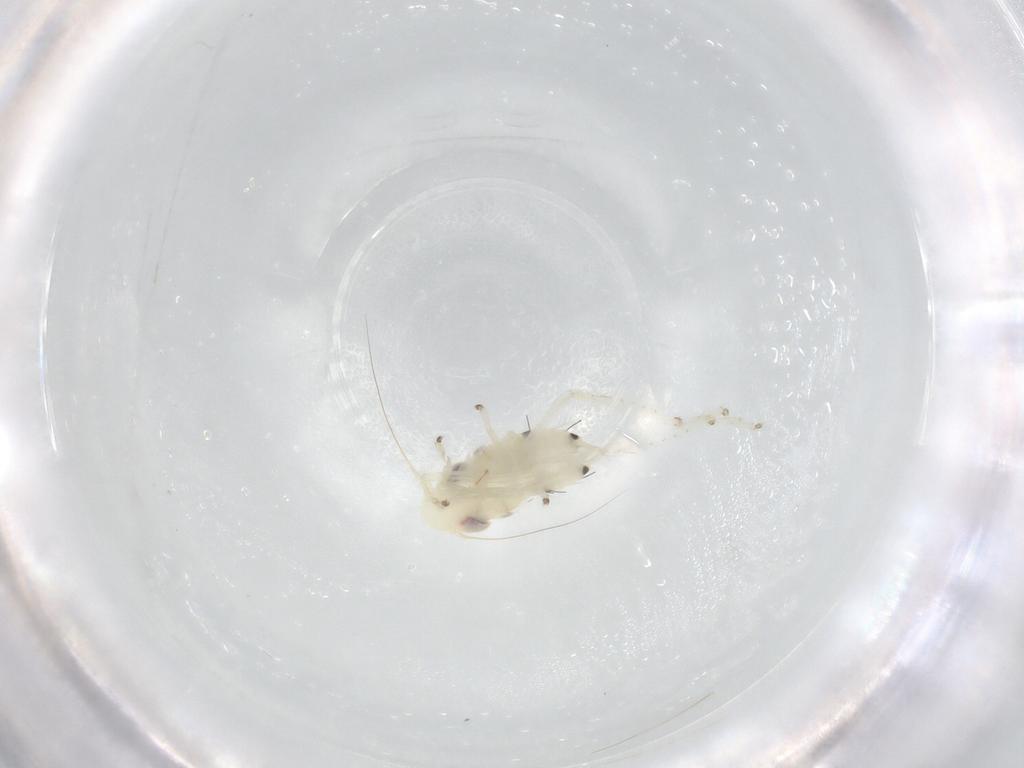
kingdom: Animalia
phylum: Arthropoda
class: Insecta
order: Hemiptera
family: Cicadellidae
